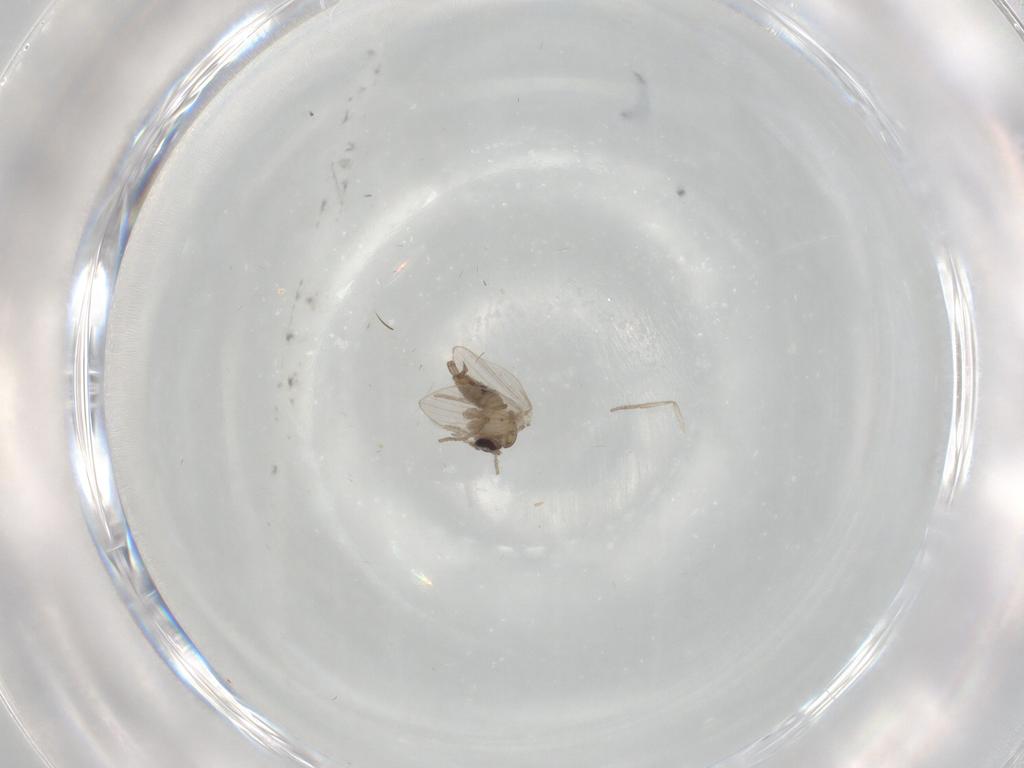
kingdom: Animalia
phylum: Arthropoda
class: Insecta
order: Diptera
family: Psychodidae
